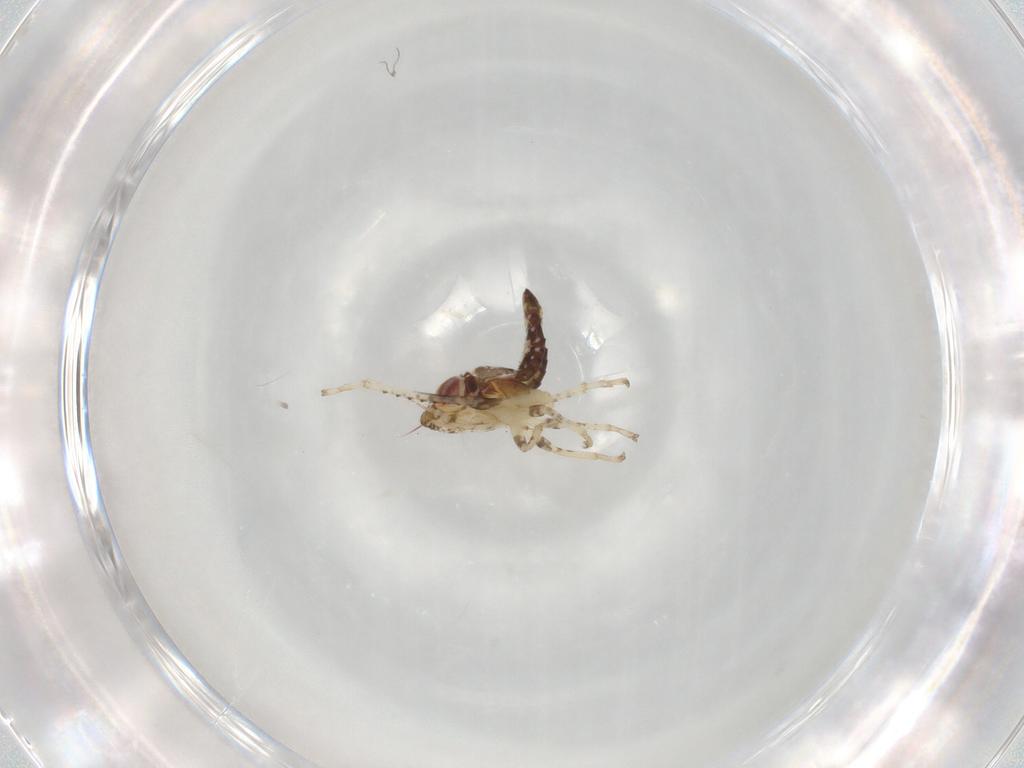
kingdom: Animalia
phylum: Arthropoda
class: Insecta
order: Hemiptera
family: Cicadellidae
